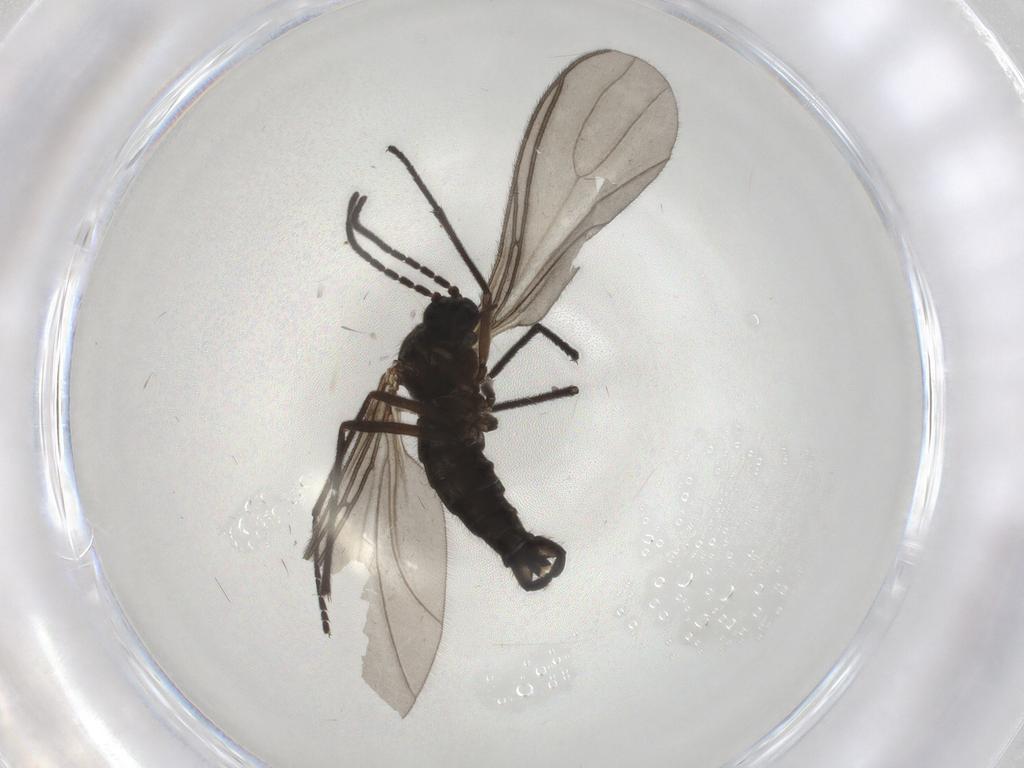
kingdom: Animalia
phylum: Arthropoda
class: Insecta
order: Diptera
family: Sciaridae
